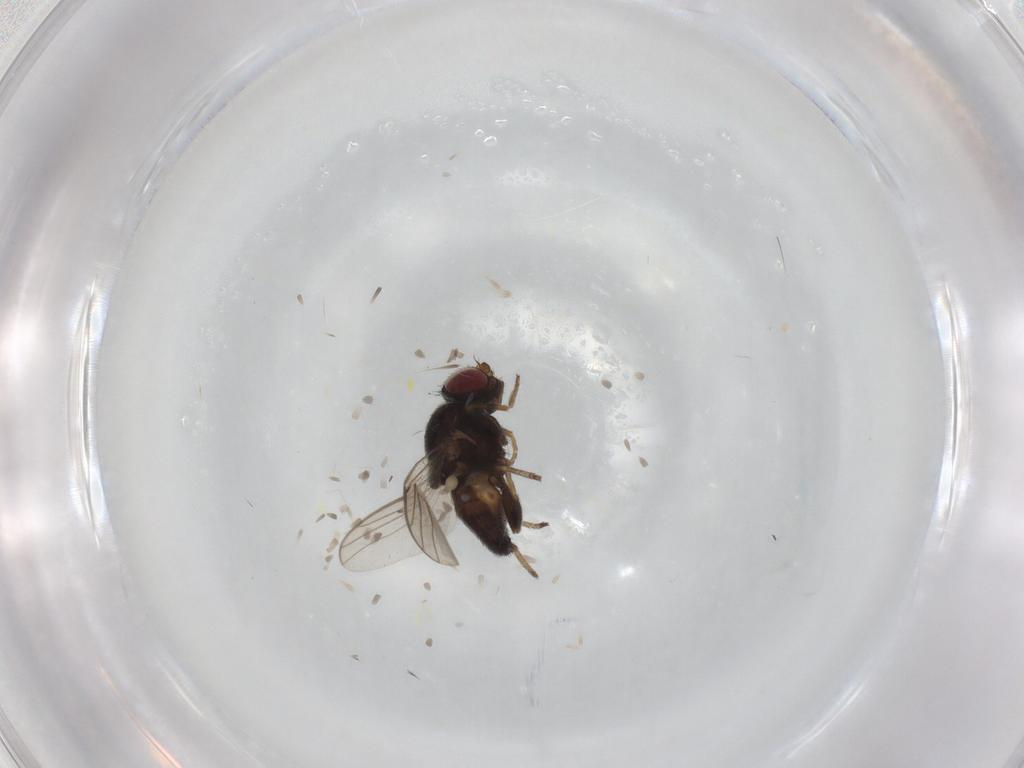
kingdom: Animalia
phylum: Arthropoda
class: Insecta
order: Diptera
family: Chloropidae
